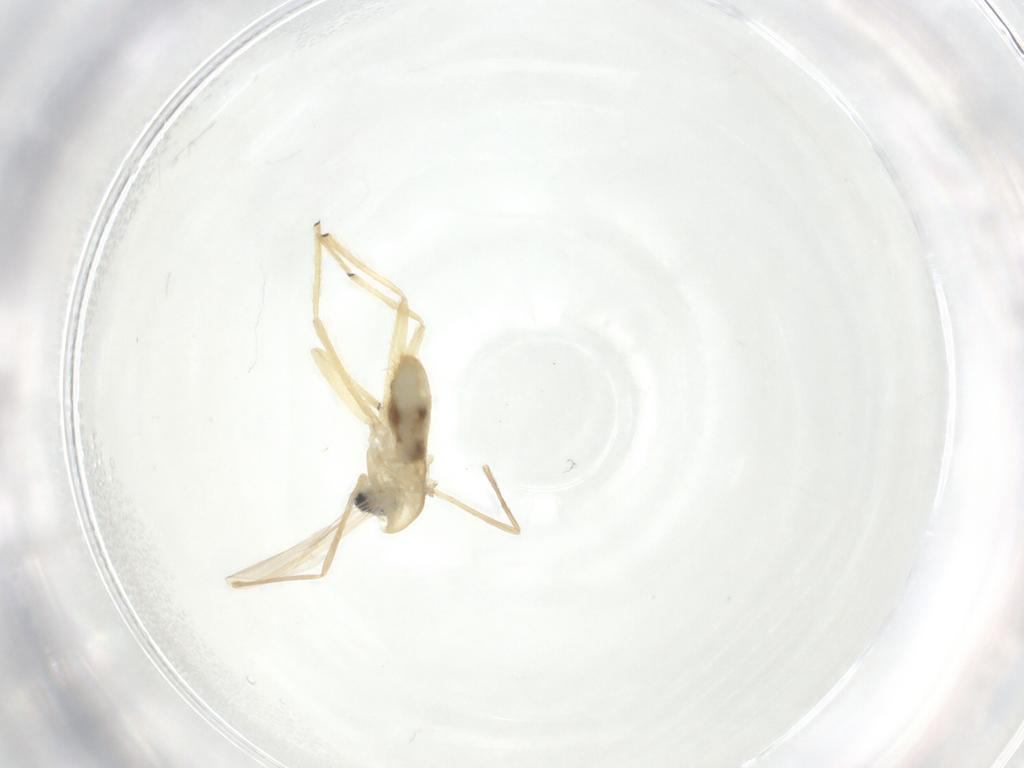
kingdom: Animalia
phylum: Arthropoda
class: Insecta
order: Diptera
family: Chironomidae
